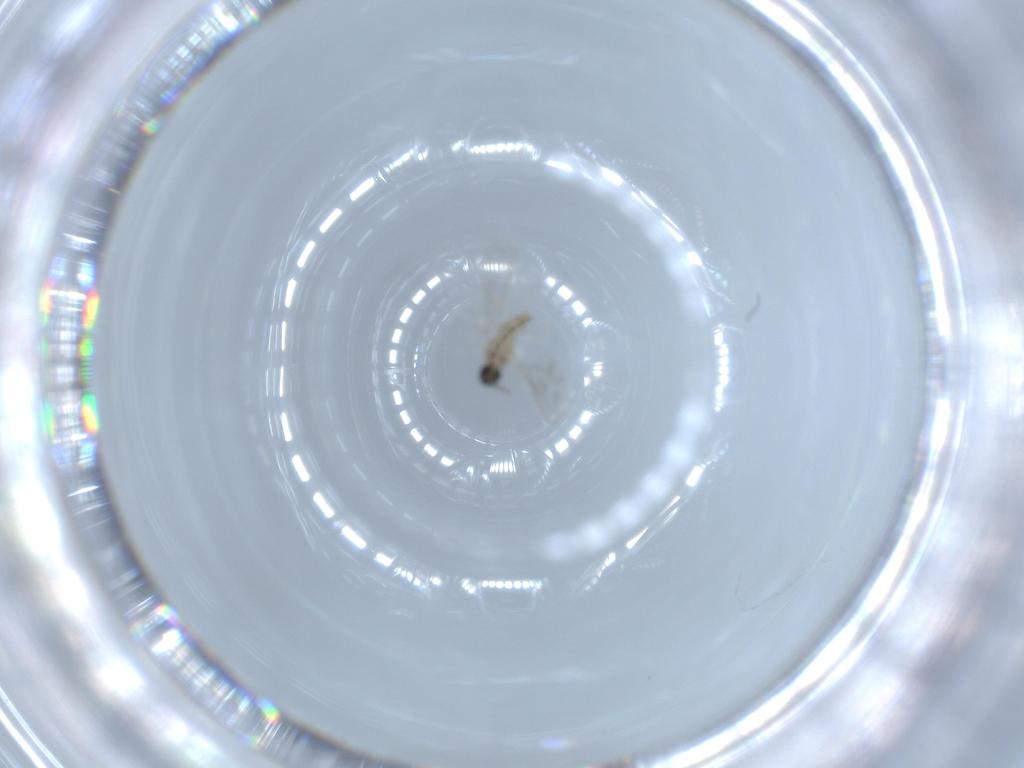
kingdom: Animalia
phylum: Arthropoda
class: Insecta
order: Diptera
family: Cecidomyiidae
